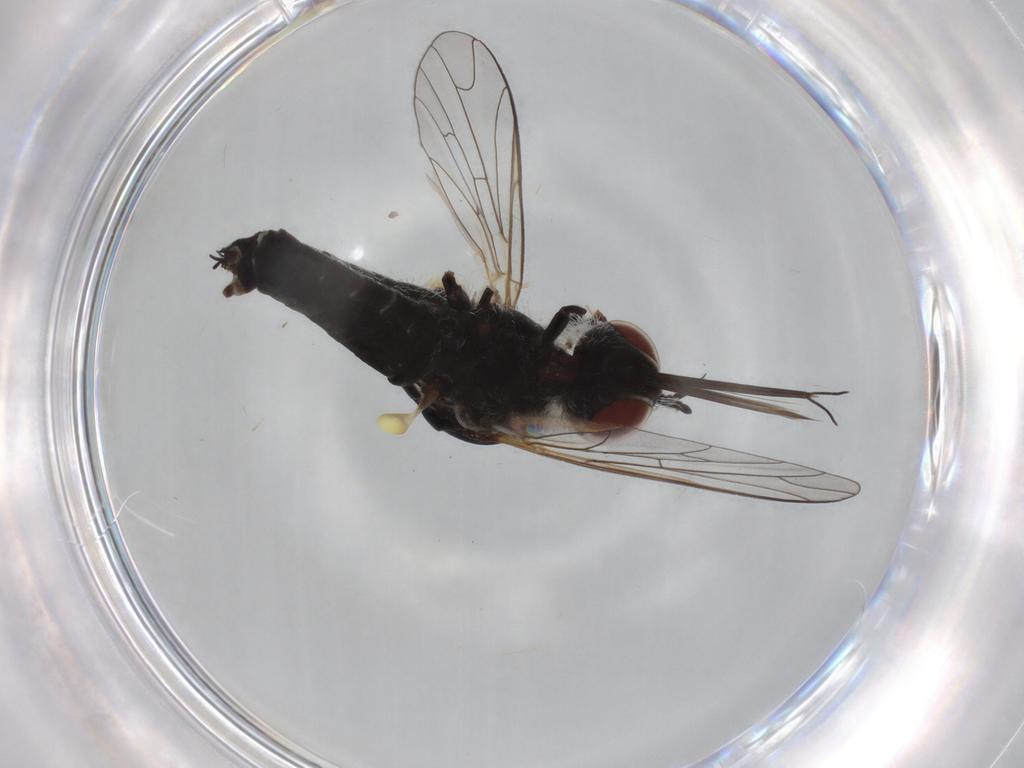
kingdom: Animalia
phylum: Arthropoda
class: Insecta
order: Diptera
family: Bombyliidae
